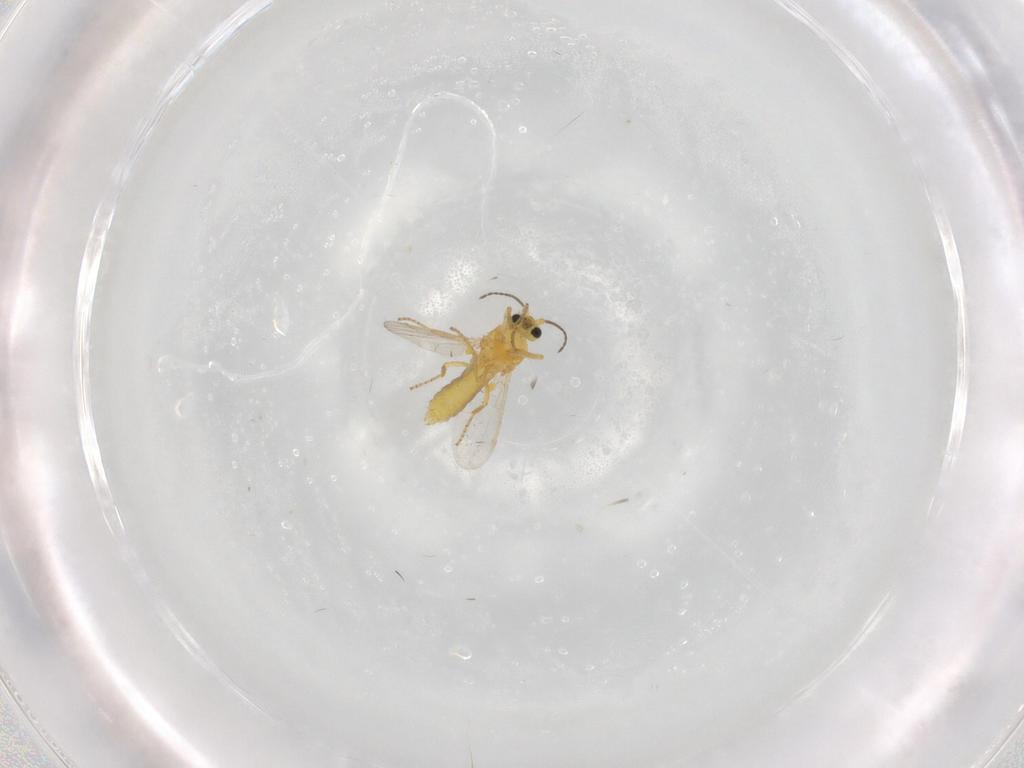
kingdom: Animalia
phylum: Arthropoda
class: Insecta
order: Diptera
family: Ceratopogonidae
